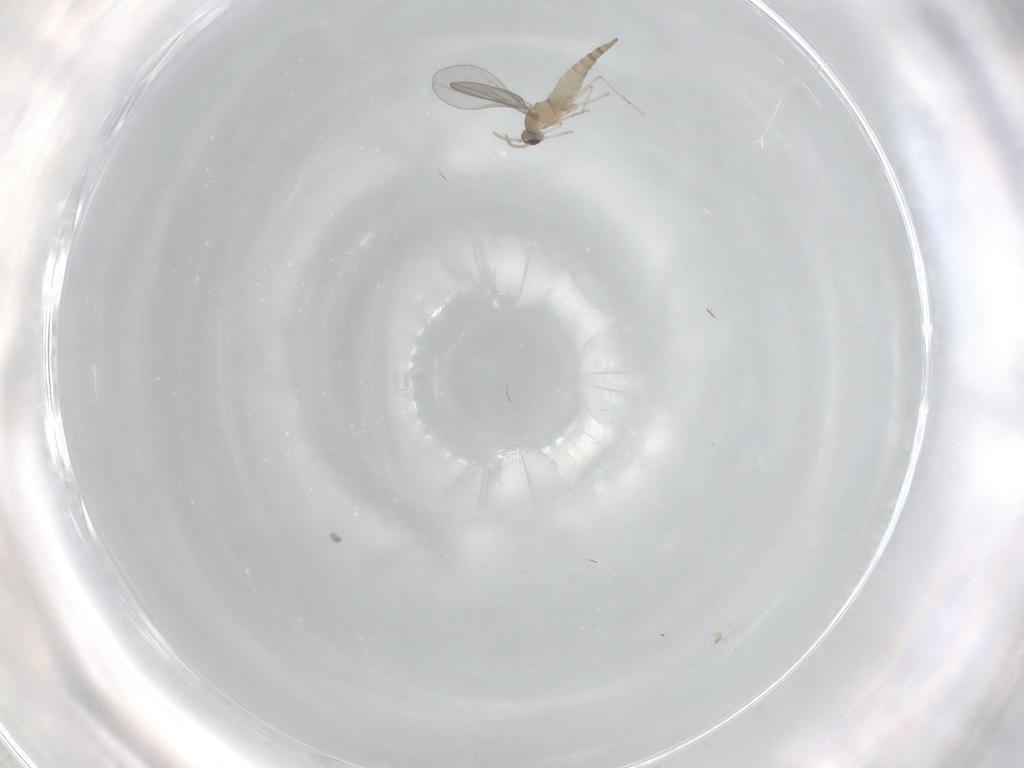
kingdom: Animalia
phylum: Arthropoda
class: Insecta
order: Diptera
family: Cecidomyiidae
